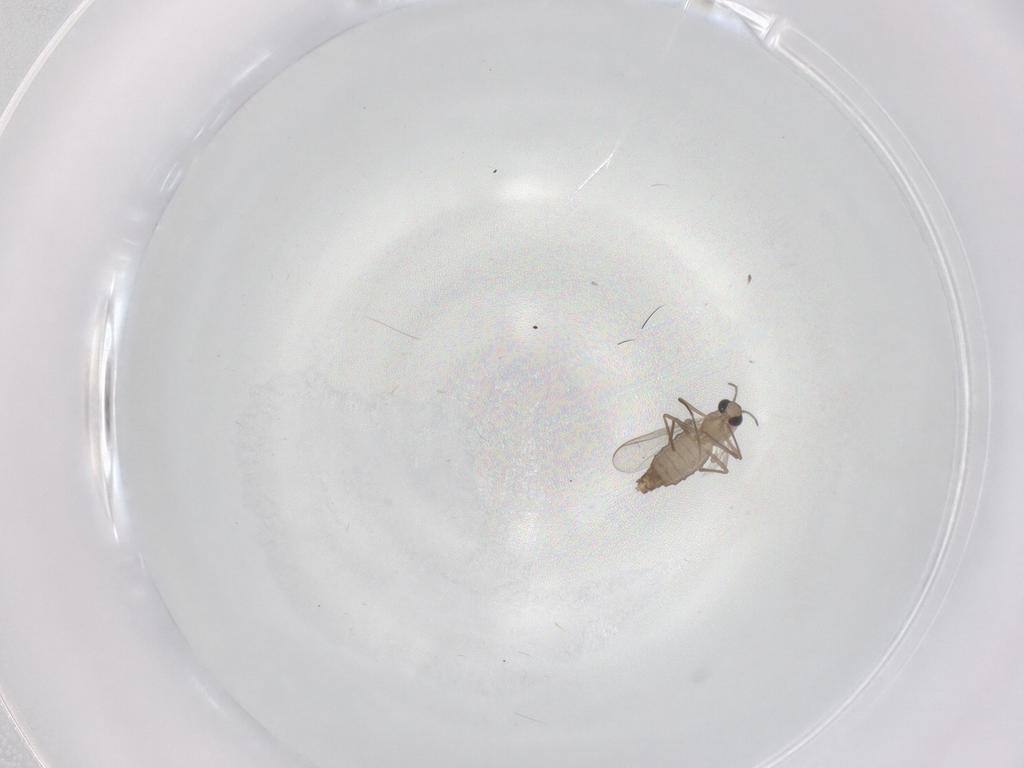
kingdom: Animalia
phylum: Arthropoda
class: Insecta
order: Diptera
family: Chironomidae
